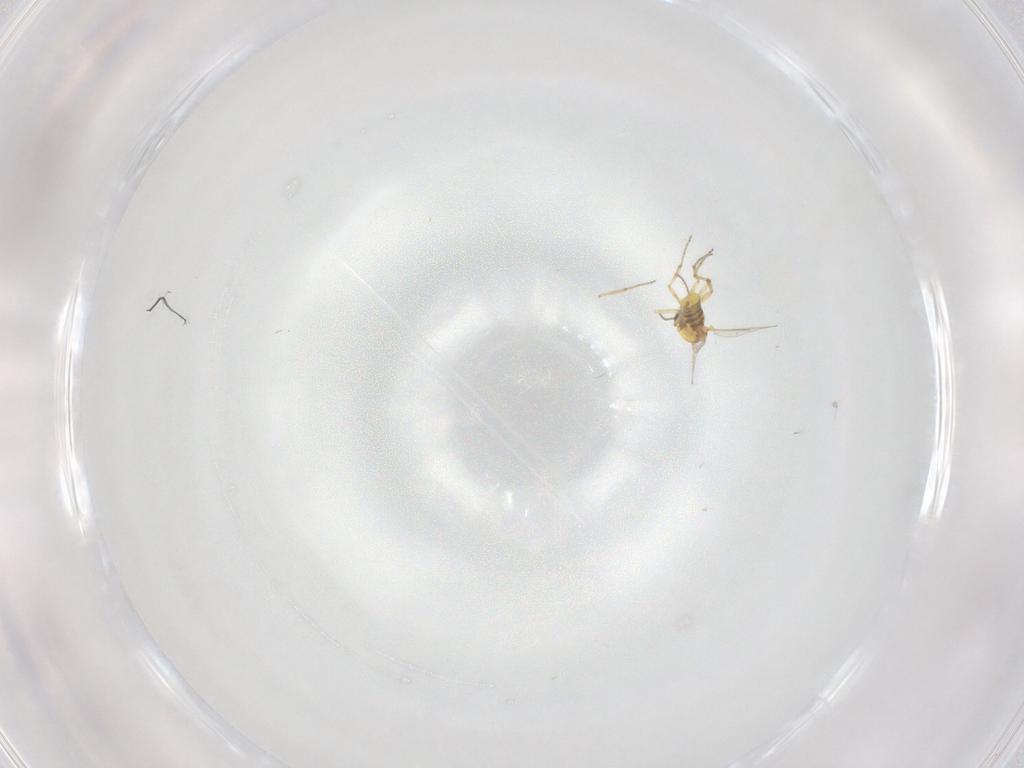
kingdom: Animalia
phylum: Arthropoda
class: Insecta
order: Diptera
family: Ceratopogonidae
